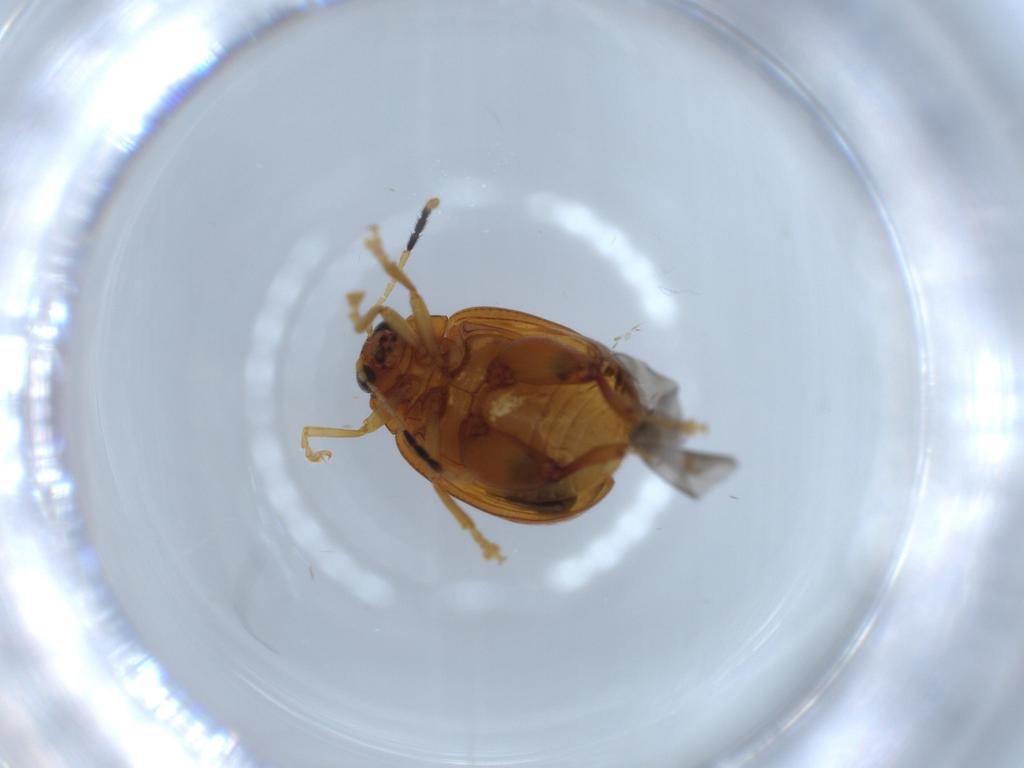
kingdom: Animalia
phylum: Arthropoda
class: Insecta
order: Coleoptera
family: Chrysomelidae
